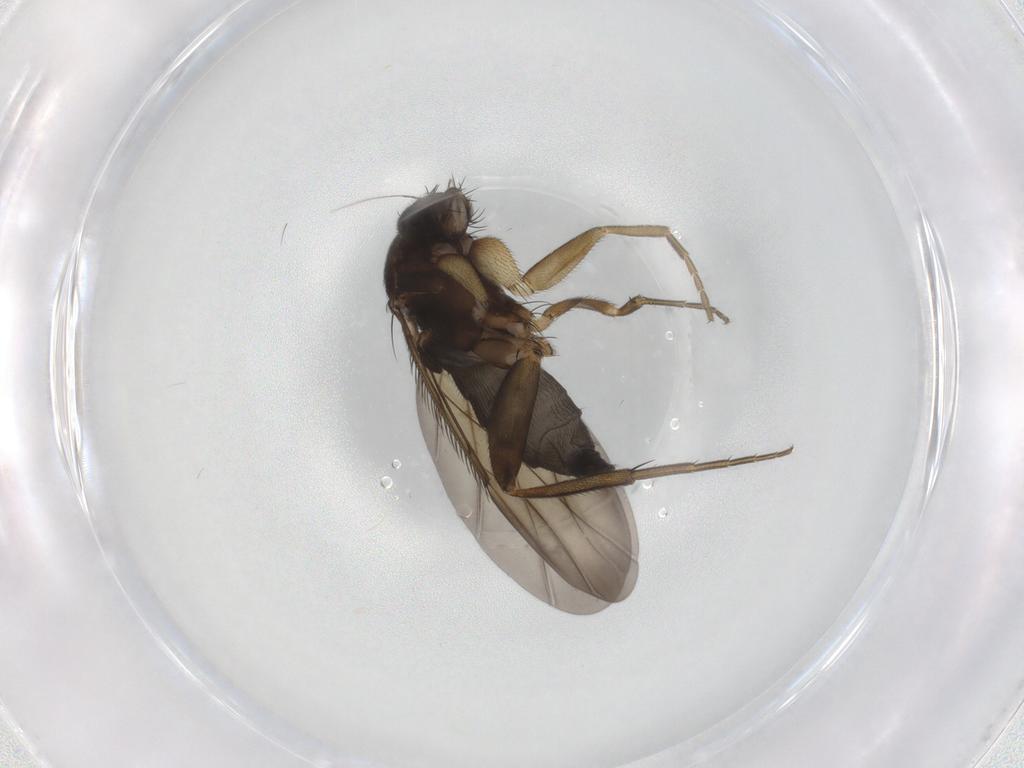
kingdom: Animalia
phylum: Arthropoda
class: Insecta
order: Diptera
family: Phoridae
